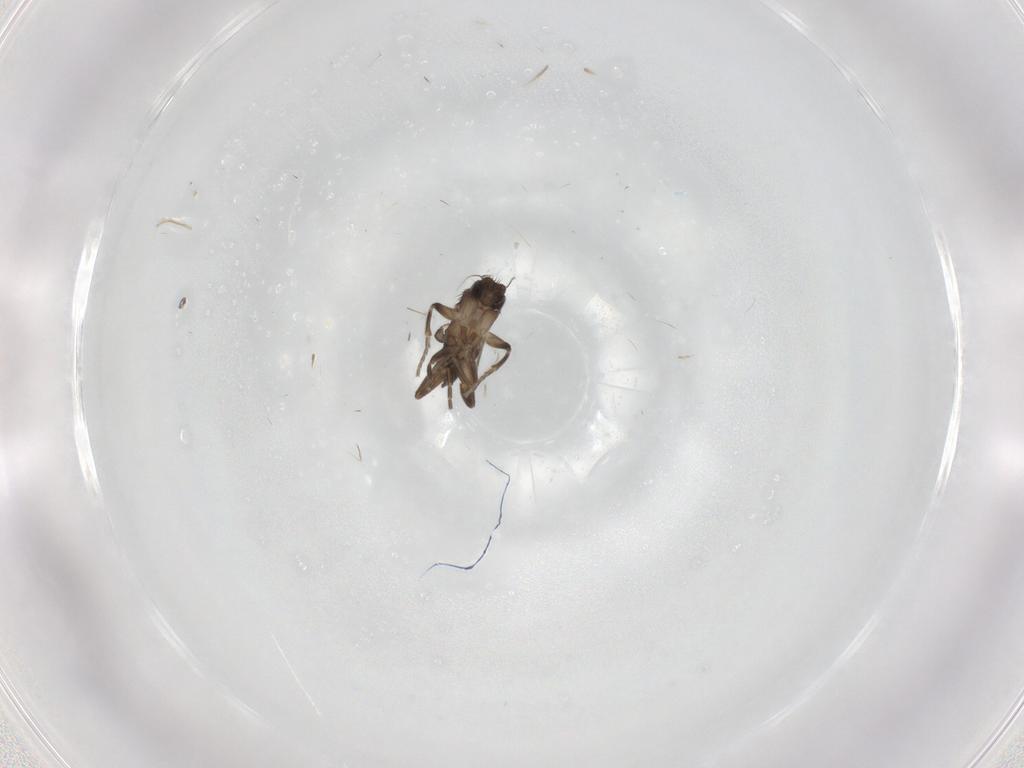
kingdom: Animalia
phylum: Arthropoda
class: Insecta
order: Diptera
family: Chironomidae
